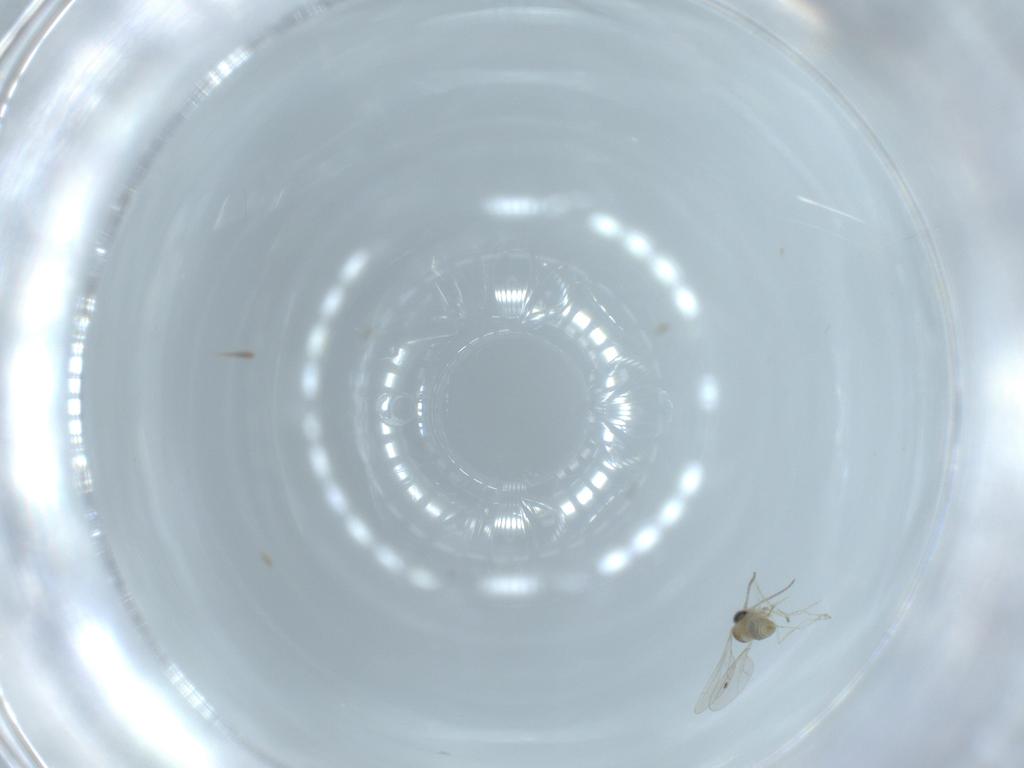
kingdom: Animalia
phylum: Arthropoda
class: Insecta
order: Diptera
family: Cecidomyiidae
